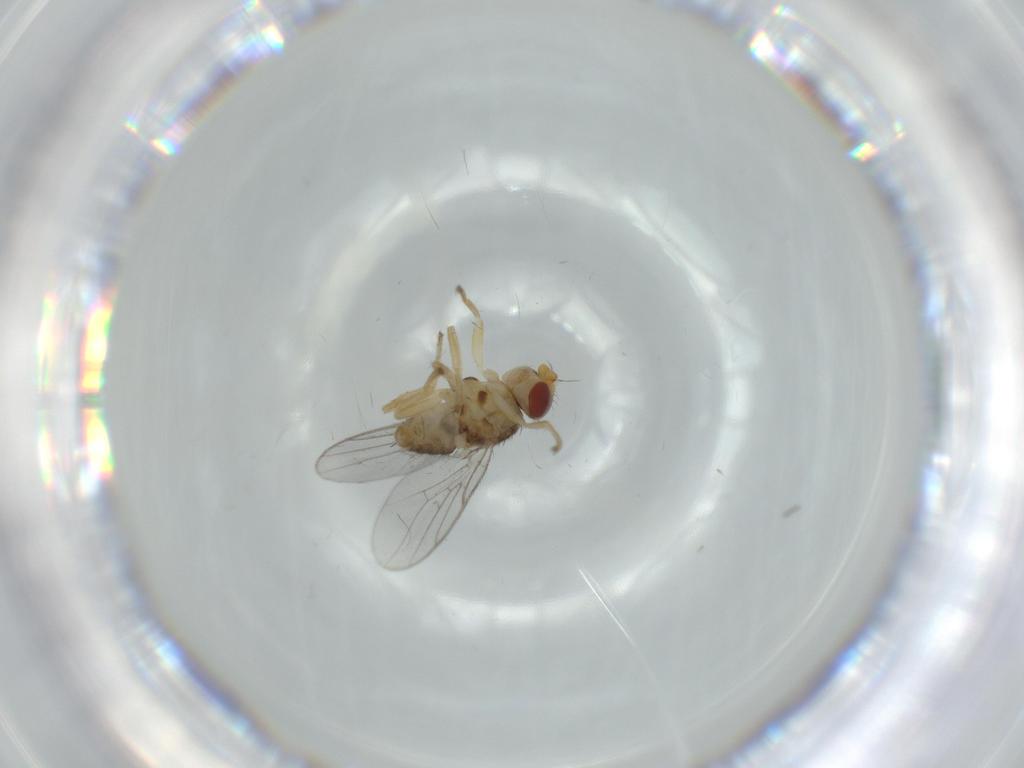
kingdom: Animalia
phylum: Arthropoda
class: Insecta
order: Diptera
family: Chloropidae
